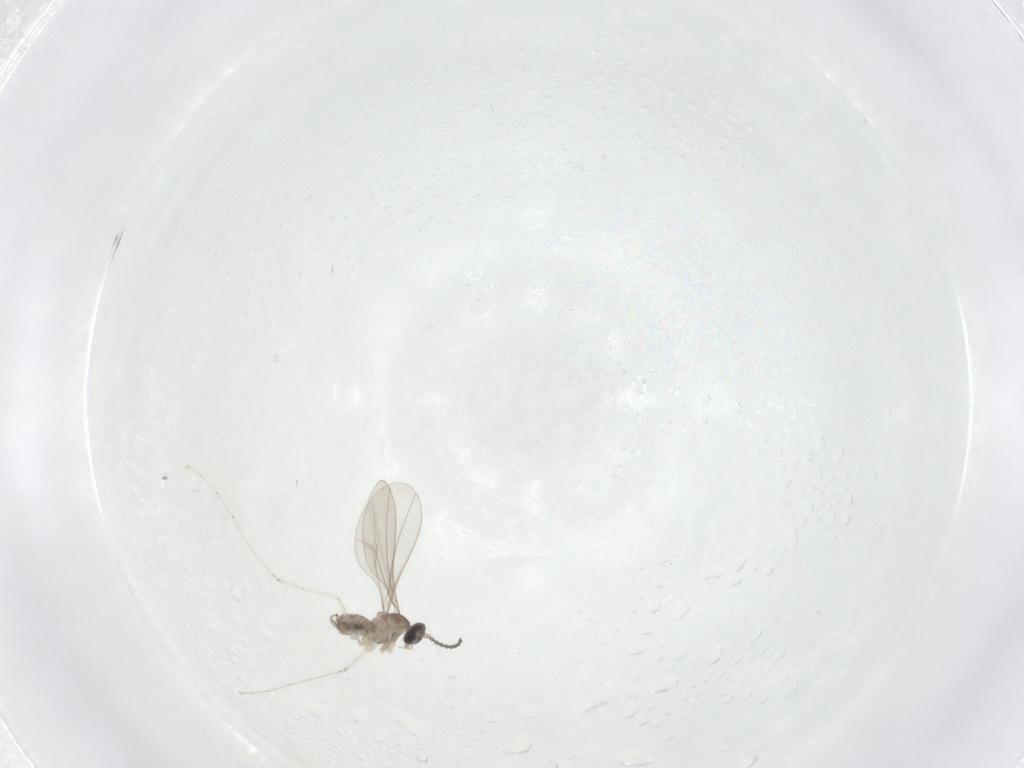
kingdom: Animalia
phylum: Arthropoda
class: Insecta
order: Diptera
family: Cecidomyiidae
